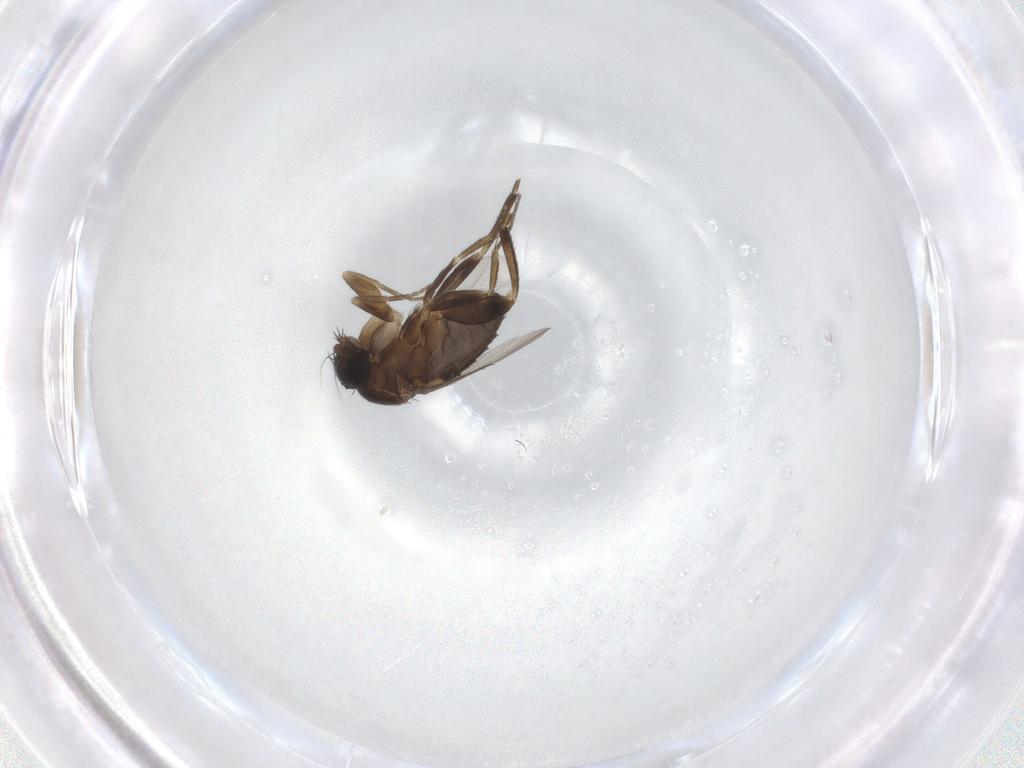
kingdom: Animalia
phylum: Arthropoda
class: Insecta
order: Diptera
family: Phoridae
